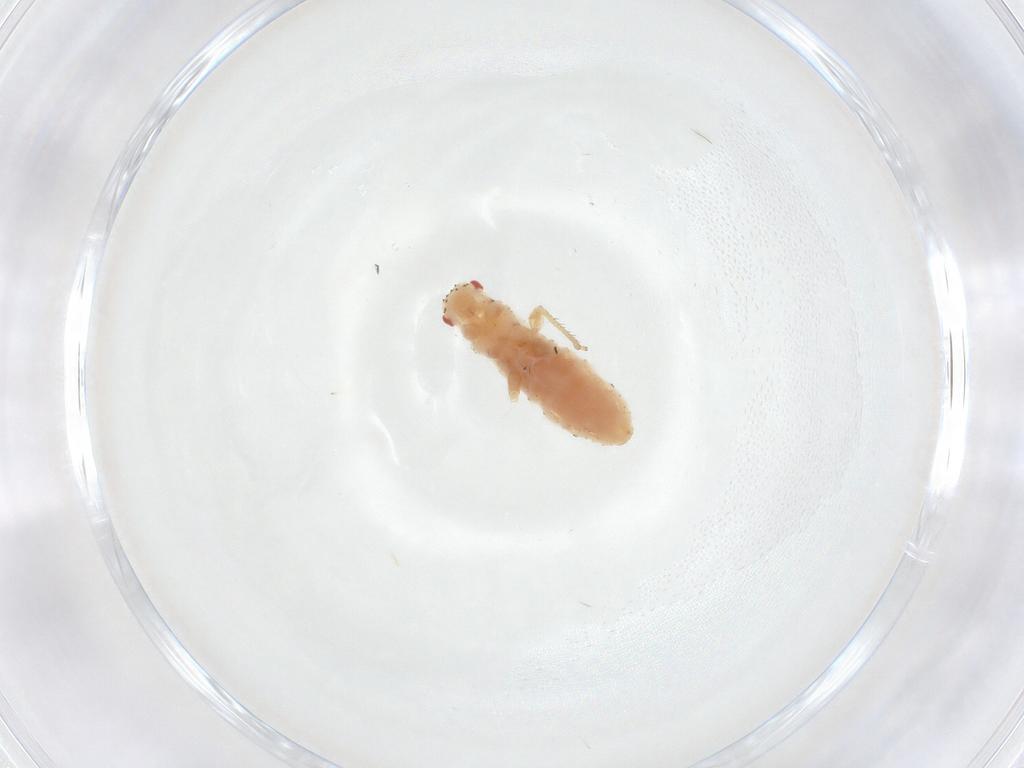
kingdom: Animalia
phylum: Arthropoda
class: Insecta
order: Hemiptera
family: Aphididae
